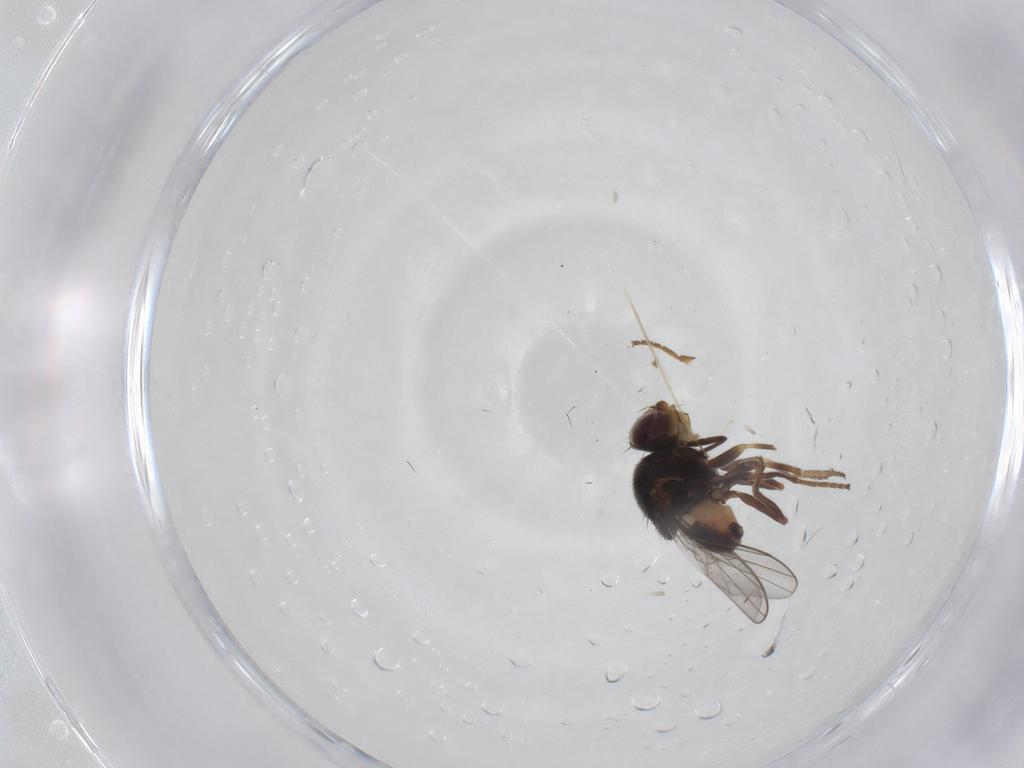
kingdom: Animalia
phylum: Arthropoda
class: Insecta
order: Diptera
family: Chloropidae
